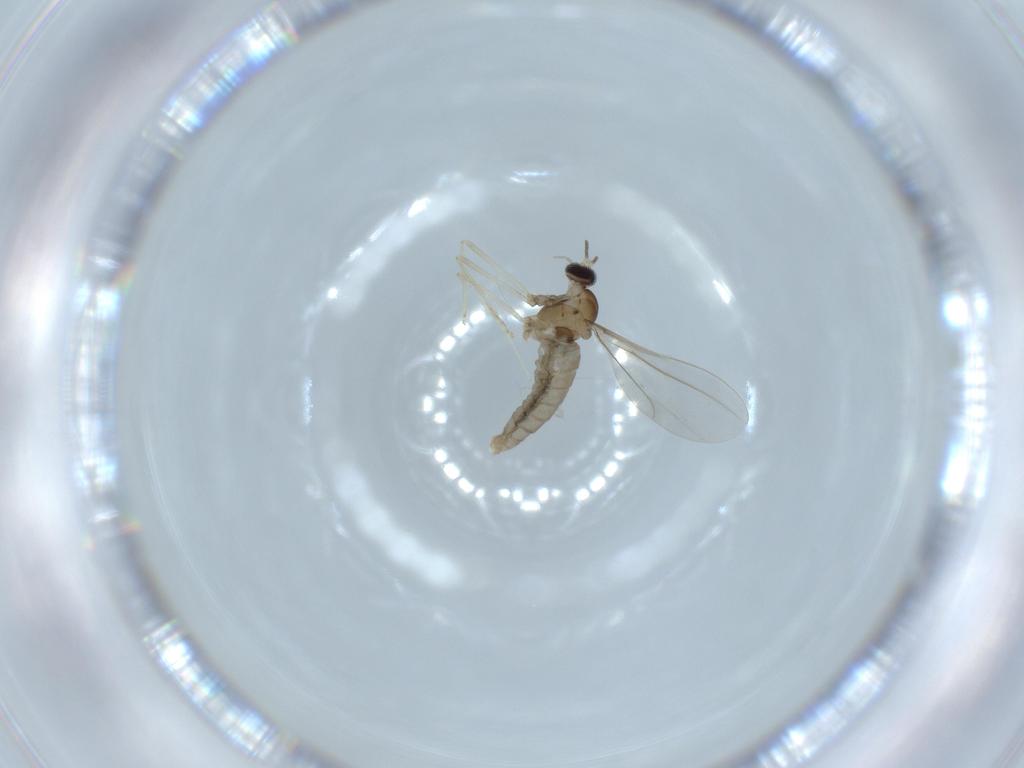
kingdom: Animalia
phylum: Arthropoda
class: Insecta
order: Diptera
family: Cecidomyiidae
